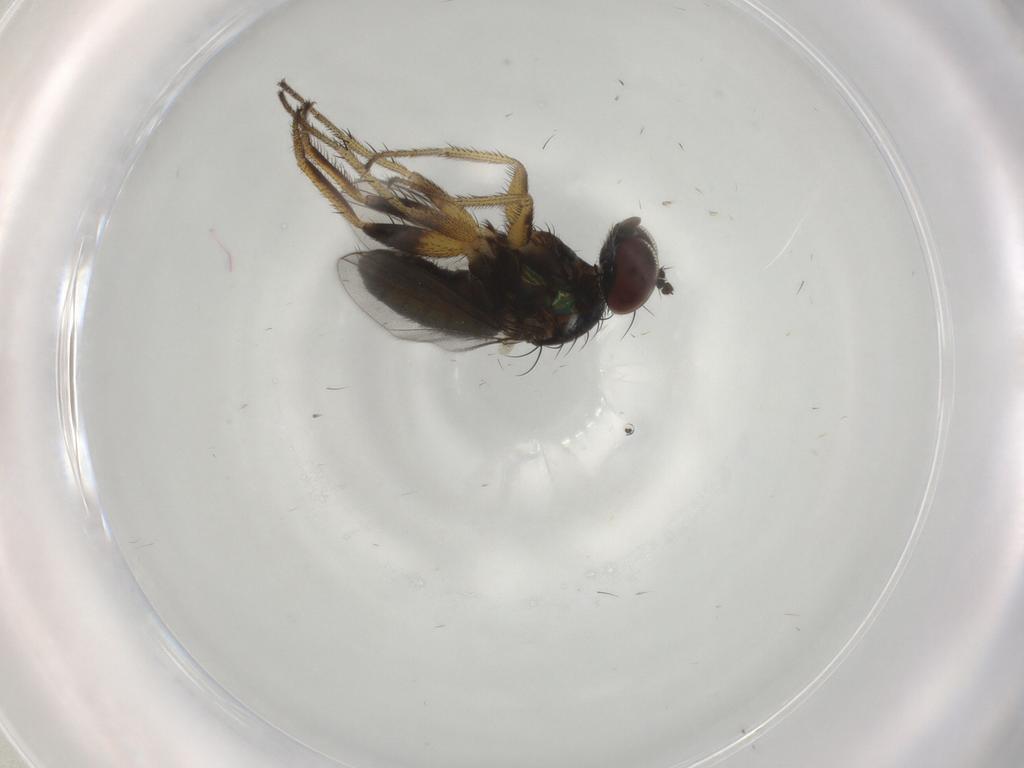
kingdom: Animalia
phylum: Arthropoda
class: Insecta
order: Diptera
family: Dolichopodidae
